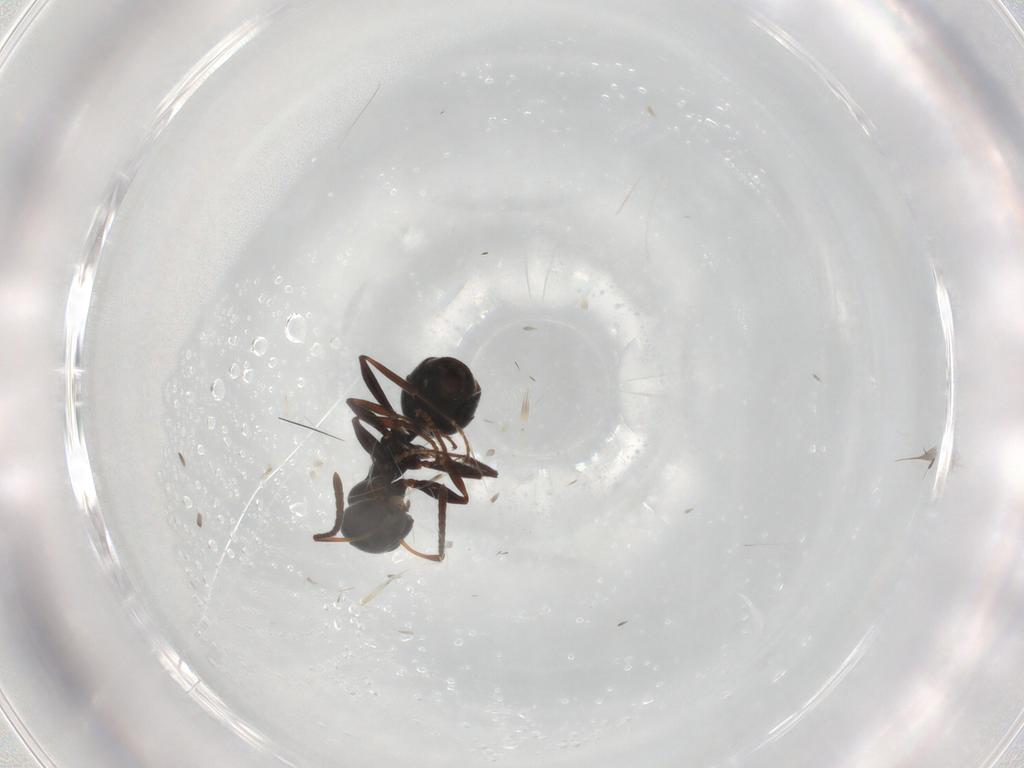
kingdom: Animalia
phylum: Arthropoda
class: Insecta
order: Hymenoptera
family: Formicidae
